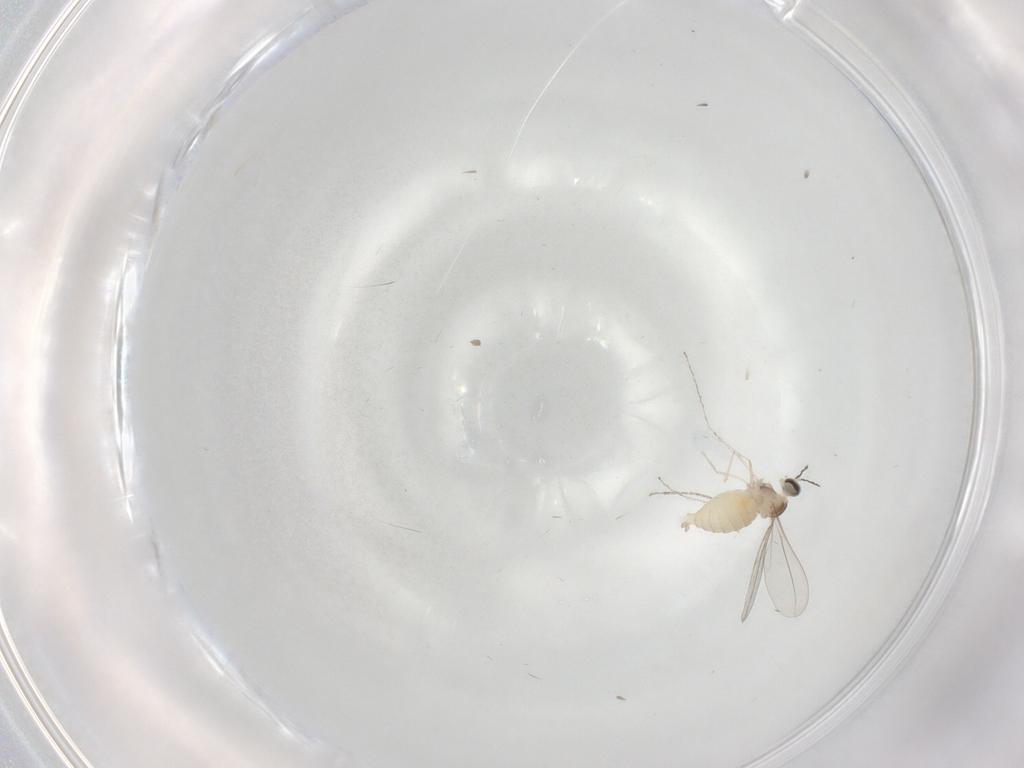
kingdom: Animalia
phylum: Arthropoda
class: Insecta
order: Diptera
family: Cecidomyiidae
